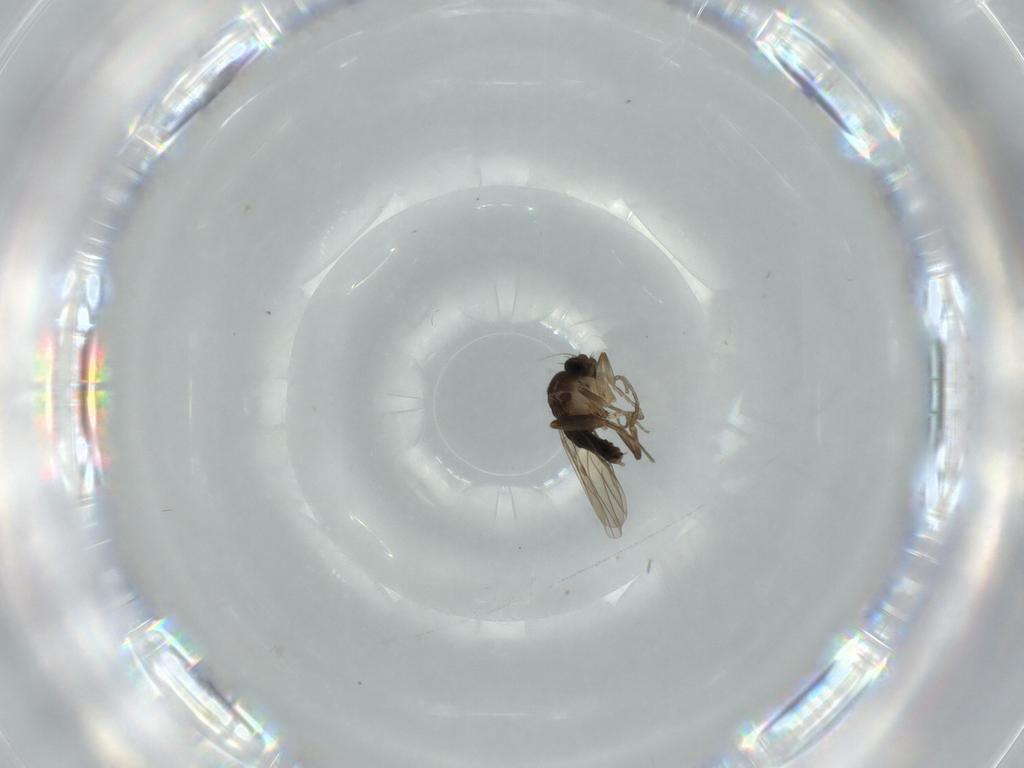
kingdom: Animalia
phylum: Arthropoda
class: Insecta
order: Diptera
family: Phoridae
